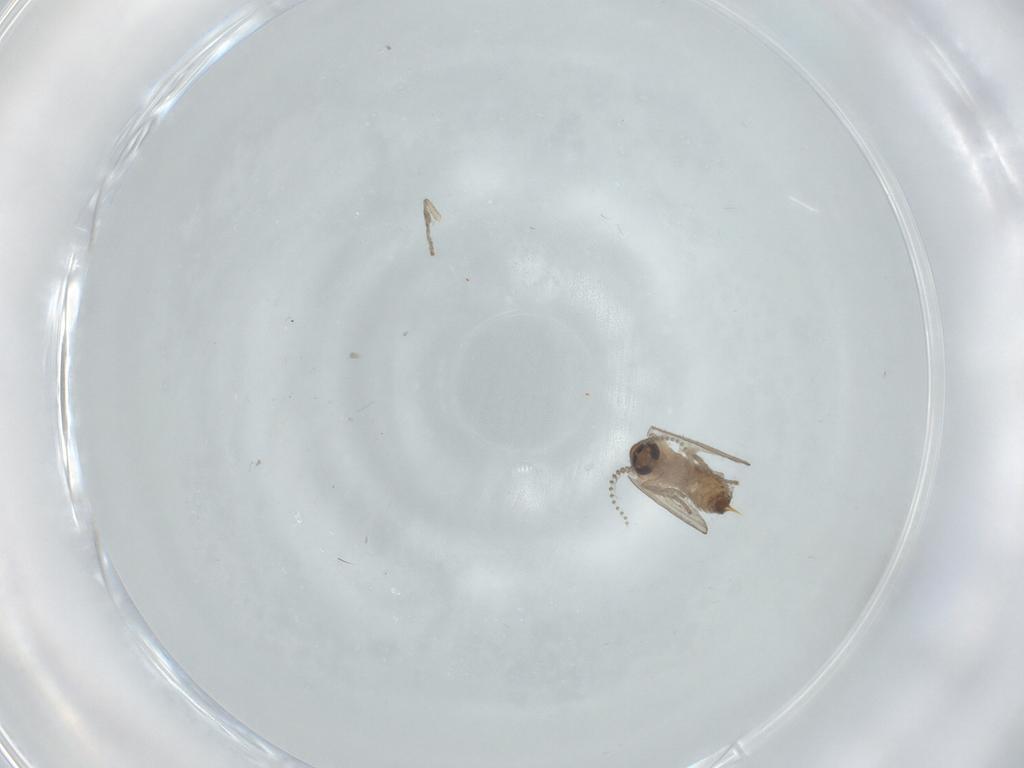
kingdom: Animalia
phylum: Arthropoda
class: Insecta
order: Diptera
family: Psychodidae
